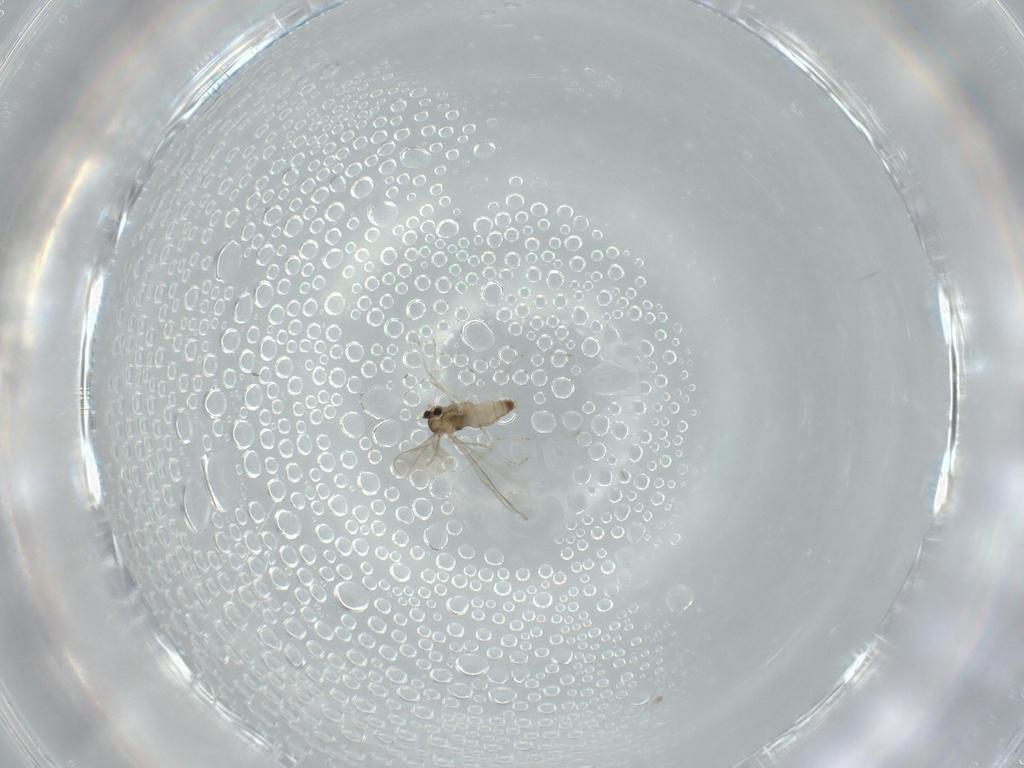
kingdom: Animalia
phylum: Arthropoda
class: Insecta
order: Diptera
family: Cecidomyiidae
